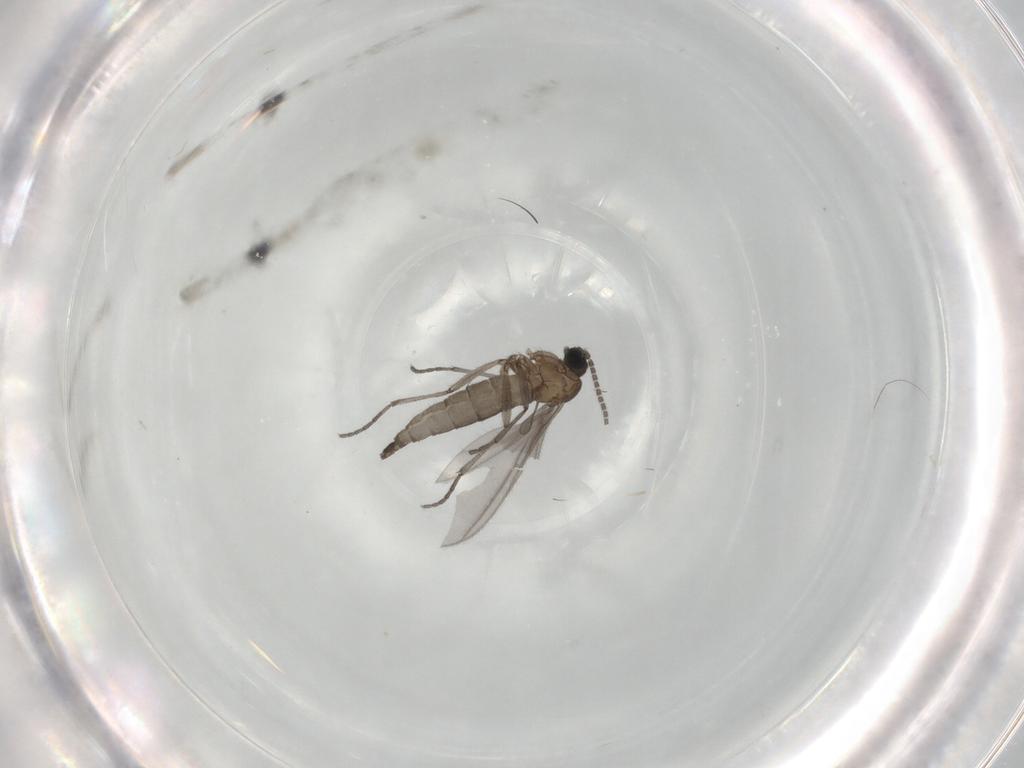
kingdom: Animalia
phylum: Arthropoda
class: Insecta
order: Diptera
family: Sciaridae
